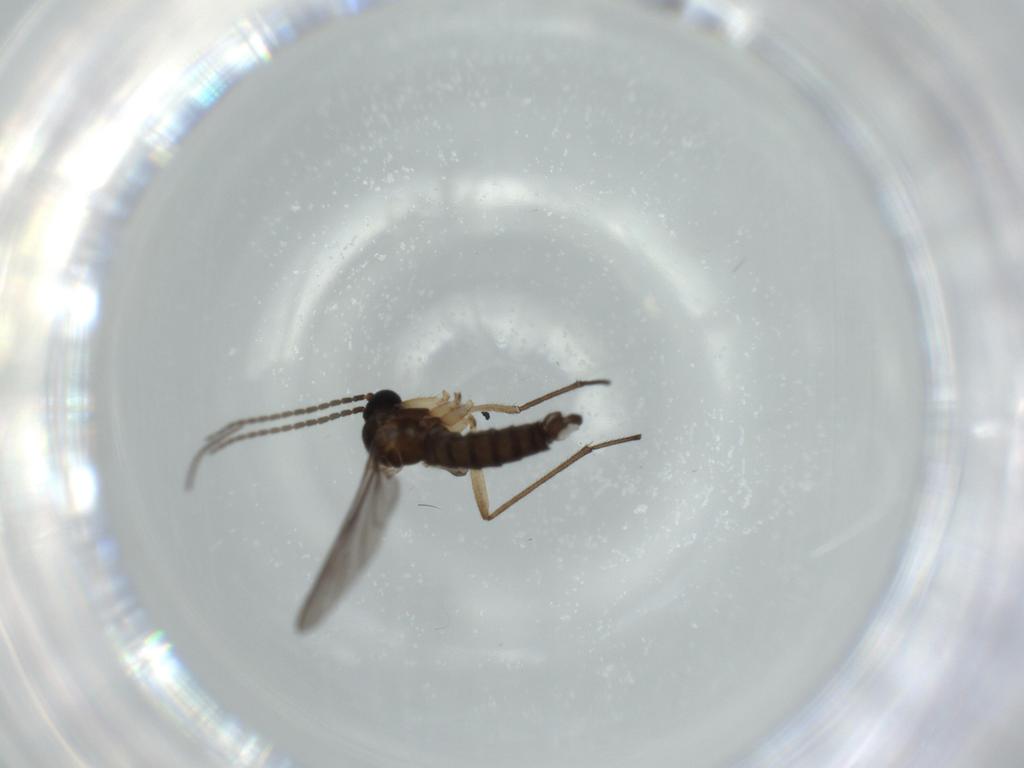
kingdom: Animalia
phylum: Arthropoda
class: Insecta
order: Diptera
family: Sciaridae
